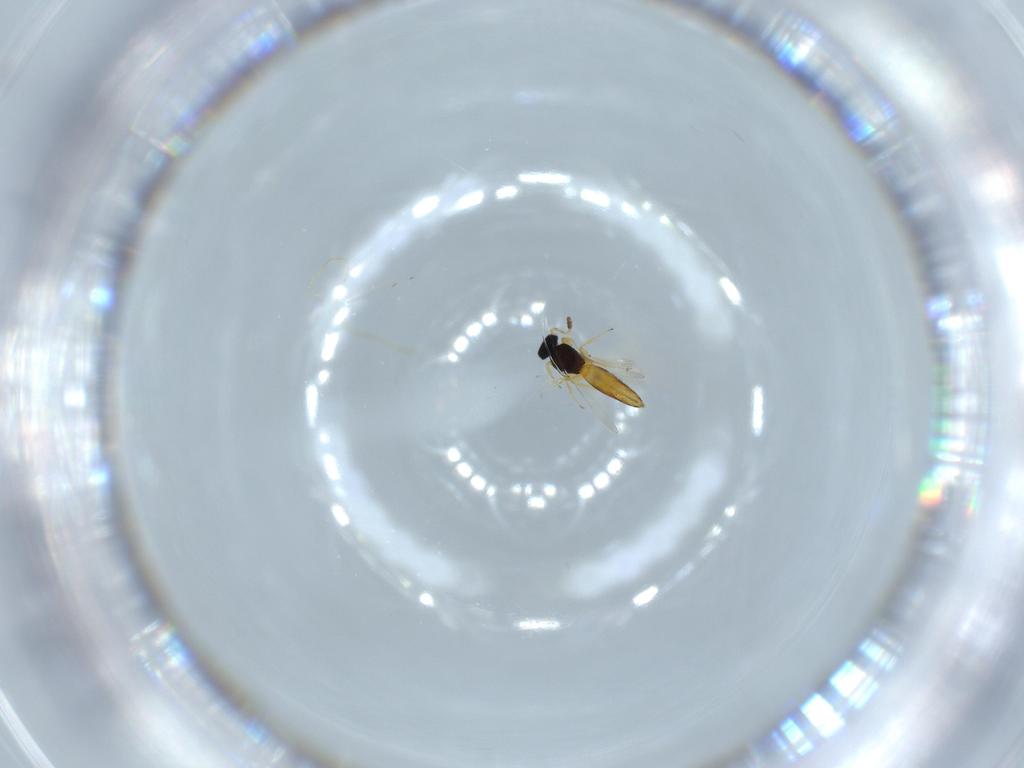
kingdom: Animalia
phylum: Arthropoda
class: Insecta
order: Hymenoptera
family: Scelionidae
